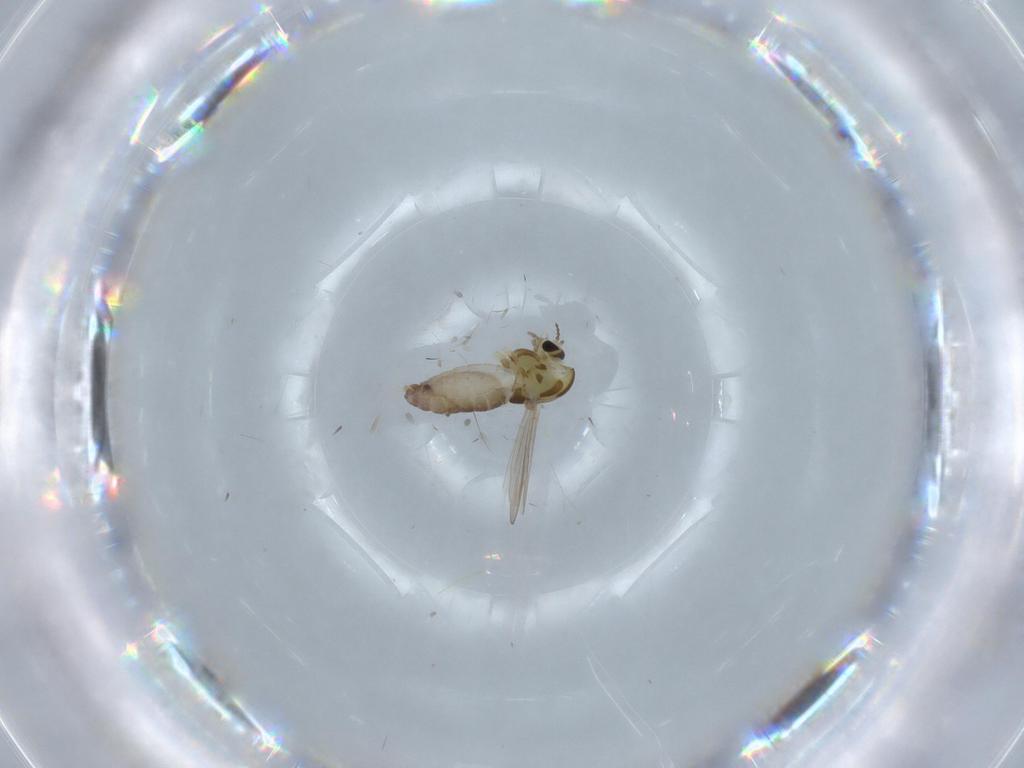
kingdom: Animalia
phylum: Arthropoda
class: Insecta
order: Diptera
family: Chironomidae
